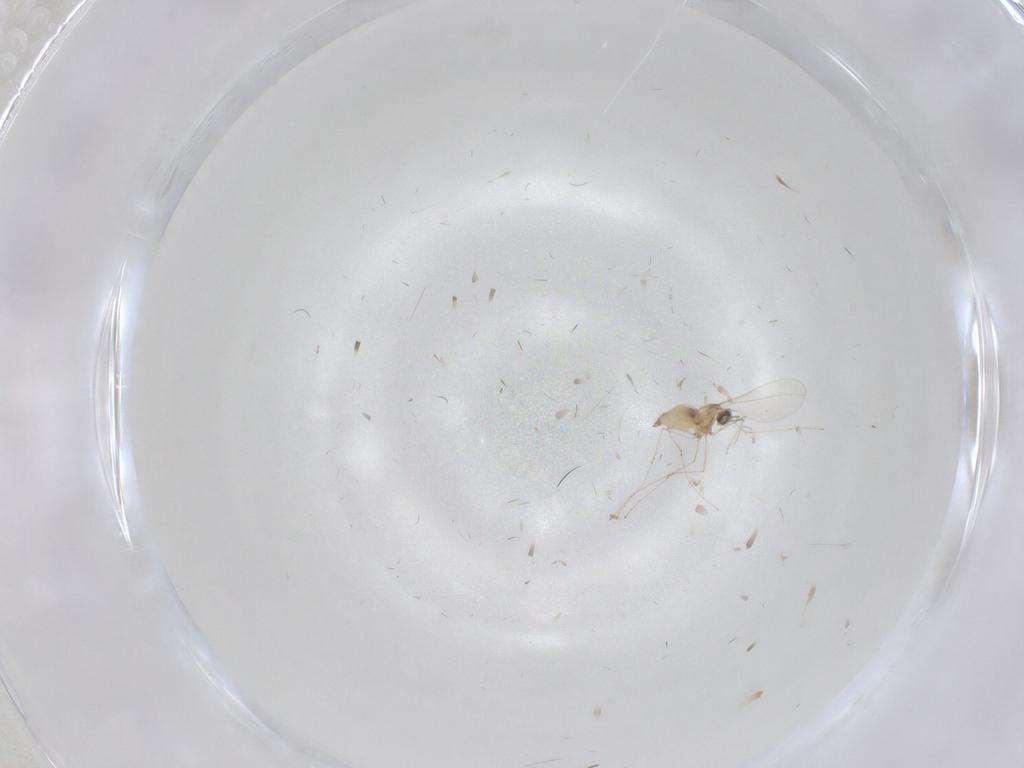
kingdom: Animalia
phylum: Arthropoda
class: Insecta
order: Diptera
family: Cecidomyiidae
